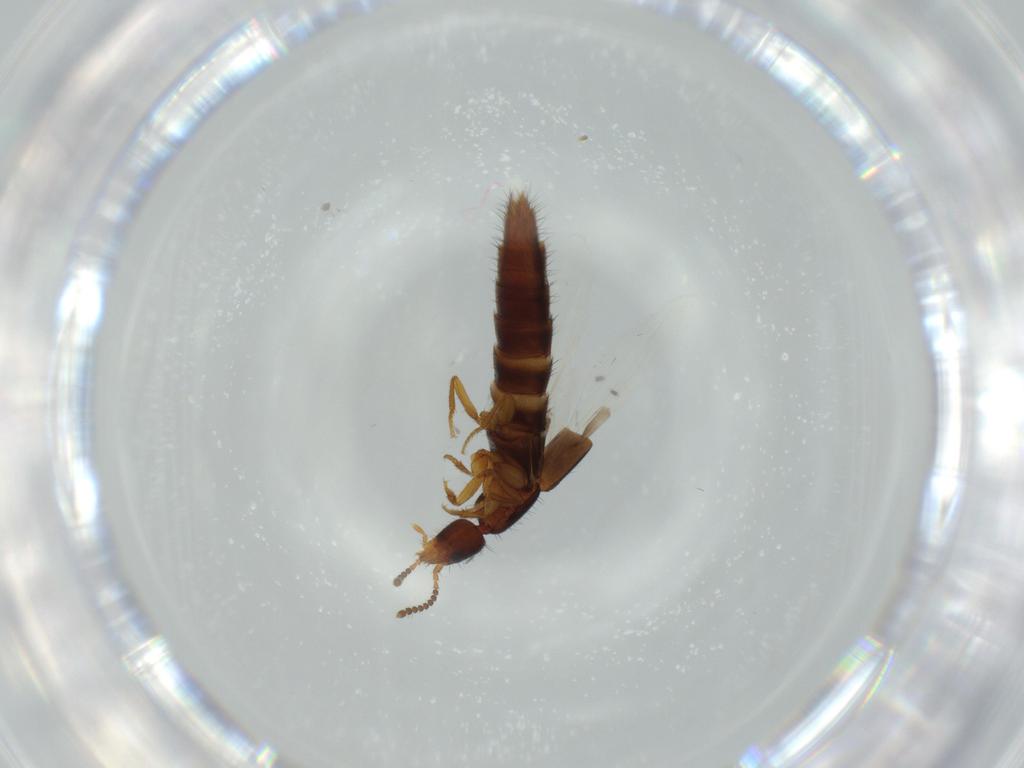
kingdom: Animalia
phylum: Arthropoda
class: Insecta
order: Coleoptera
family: Staphylinidae
